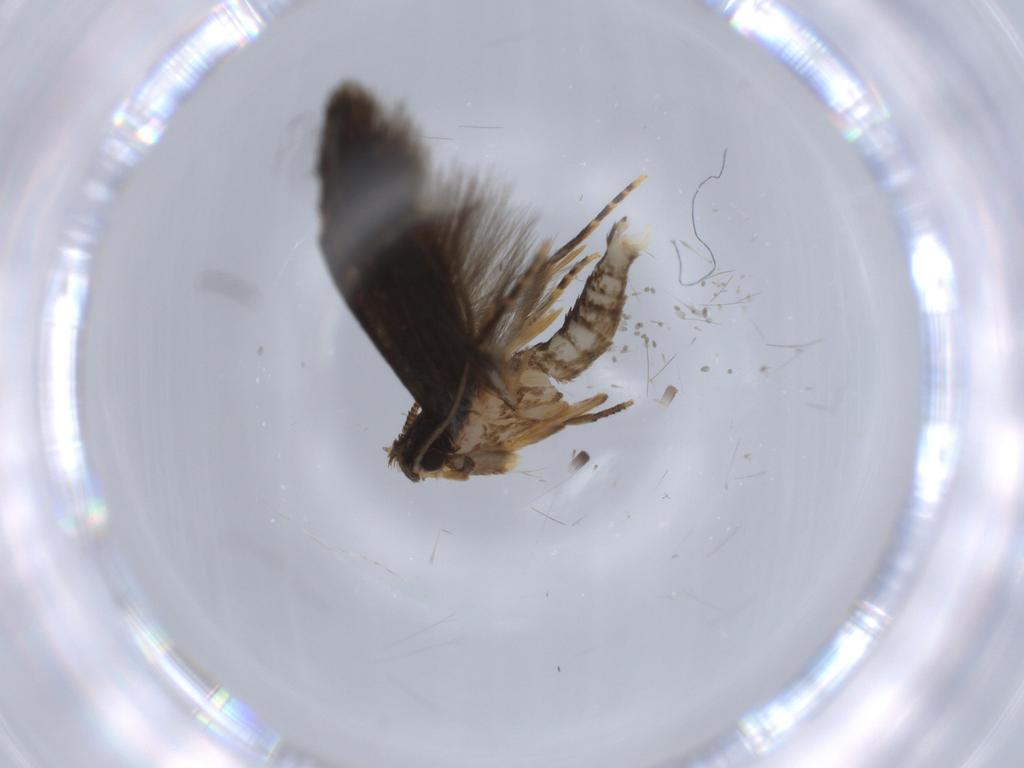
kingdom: Animalia
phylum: Arthropoda
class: Insecta
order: Lepidoptera
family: Tineidae
